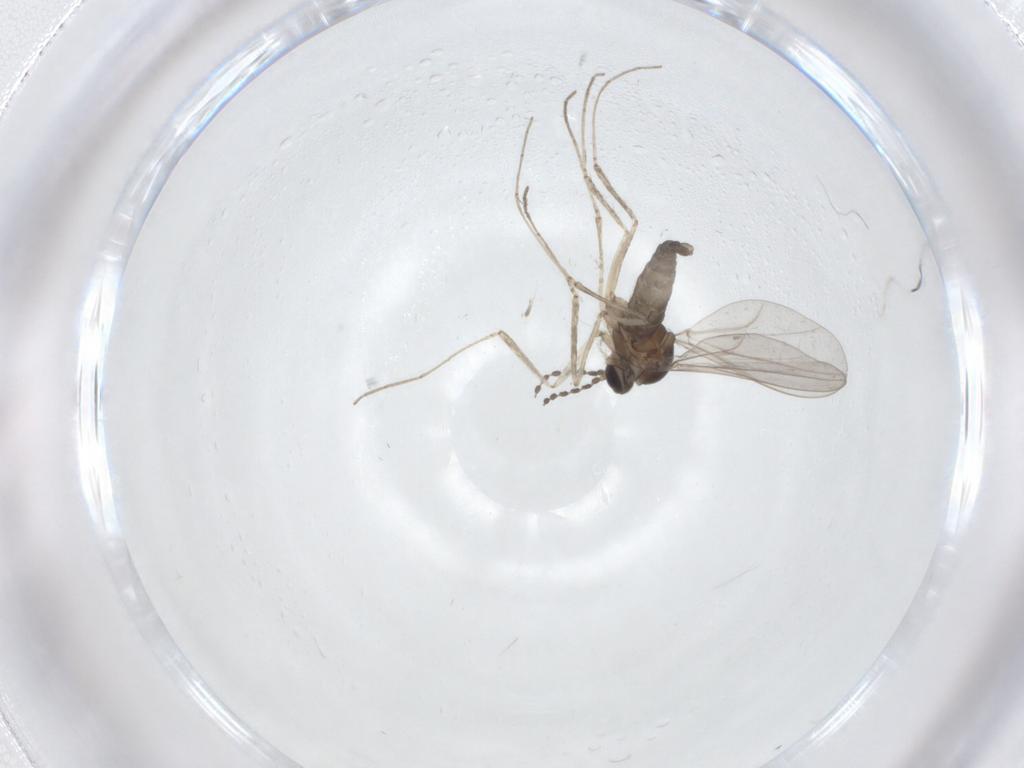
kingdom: Animalia
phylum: Arthropoda
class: Insecta
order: Diptera
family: Cecidomyiidae
